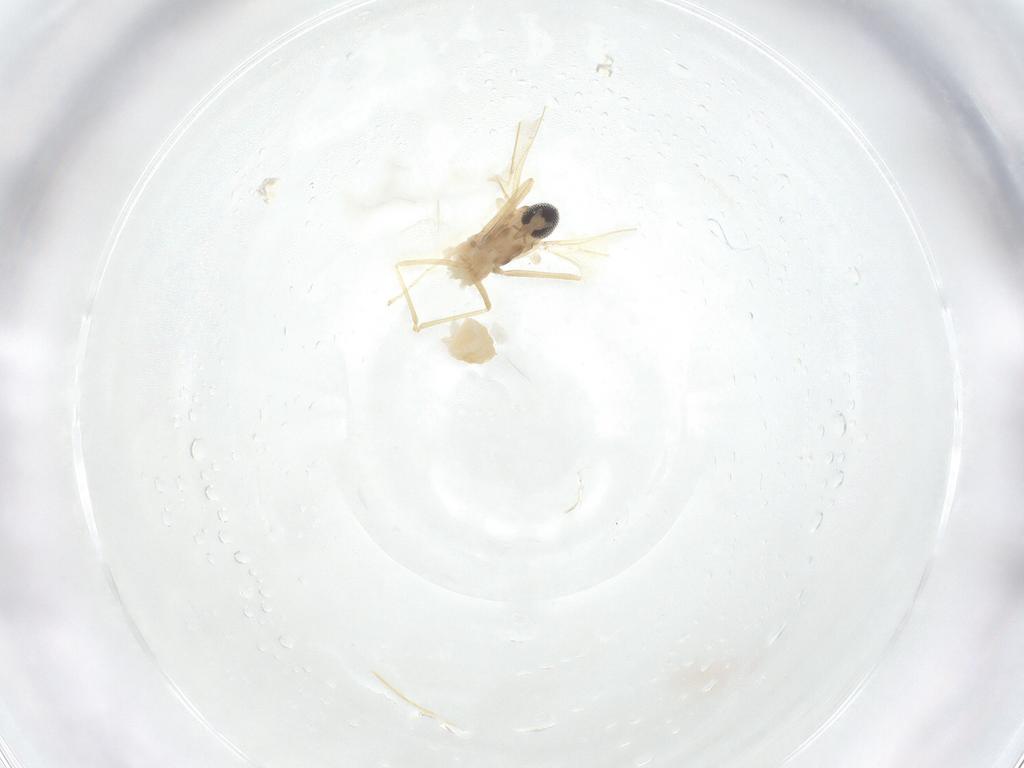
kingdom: Animalia
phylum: Arthropoda
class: Insecta
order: Diptera
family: Cecidomyiidae
